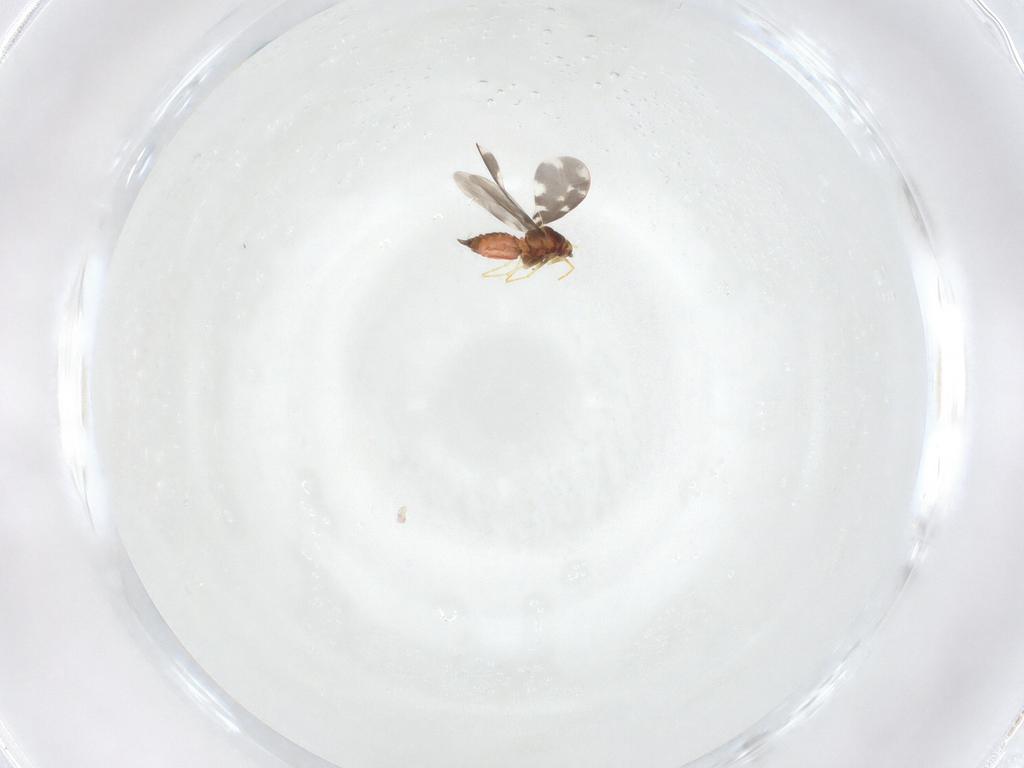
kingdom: Animalia
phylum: Arthropoda
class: Insecta
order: Hemiptera
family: Aleyrodidae
